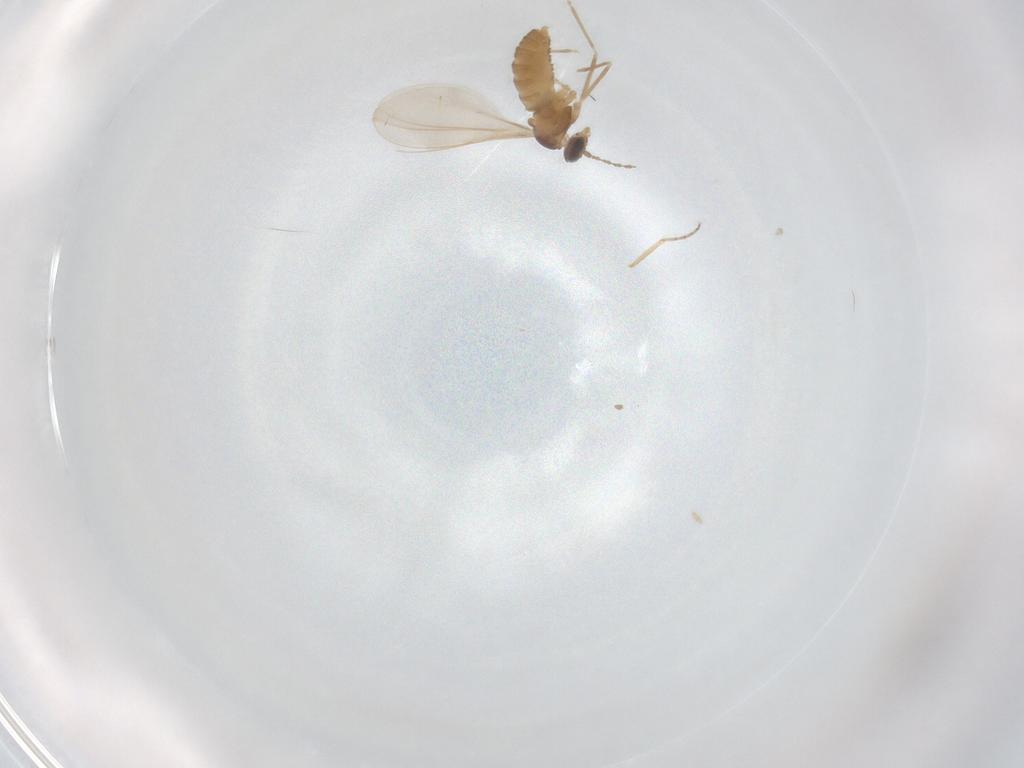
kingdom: Animalia
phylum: Arthropoda
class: Insecta
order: Diptera
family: Cecidomyiidae
